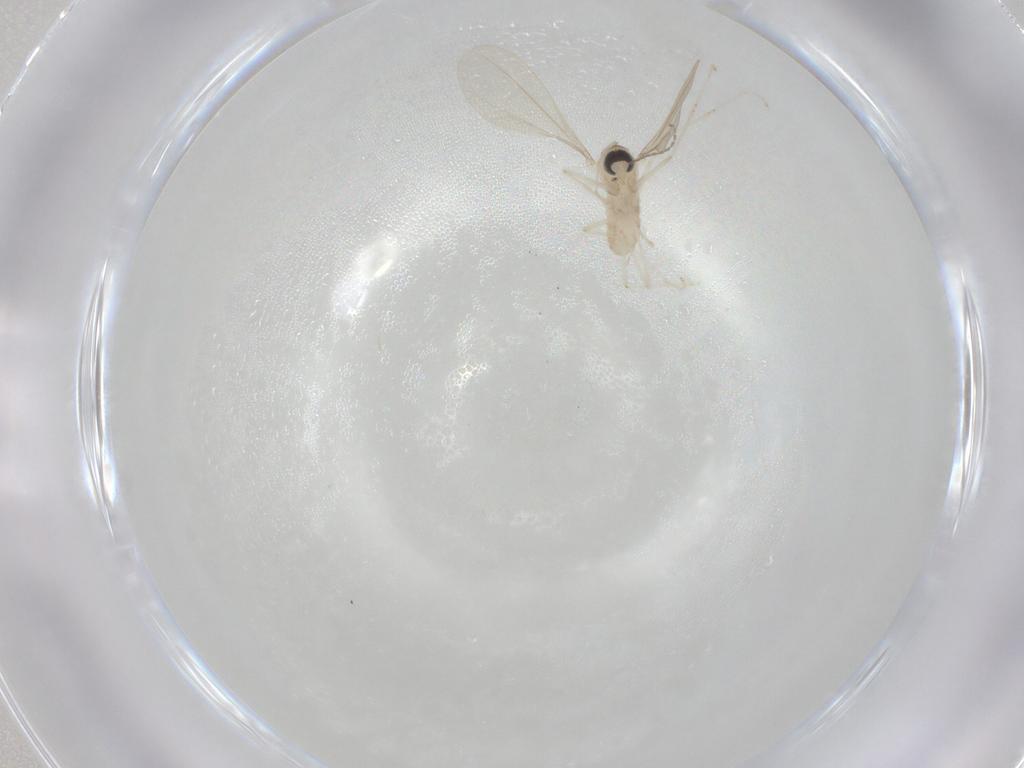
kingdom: Animalia
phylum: Arthropoda
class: Insecta
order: Diptera
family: Cecidomyiidae
